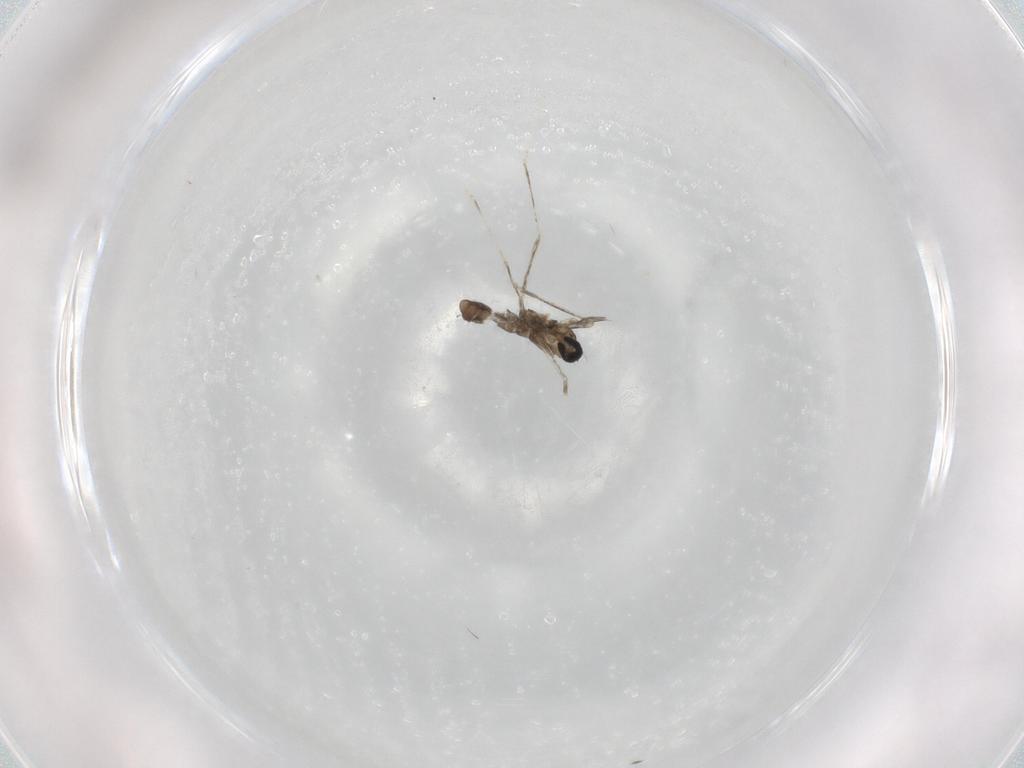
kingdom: Animalia
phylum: Arthropoda
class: Insecta
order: Diptera
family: Cecidomyiidae
